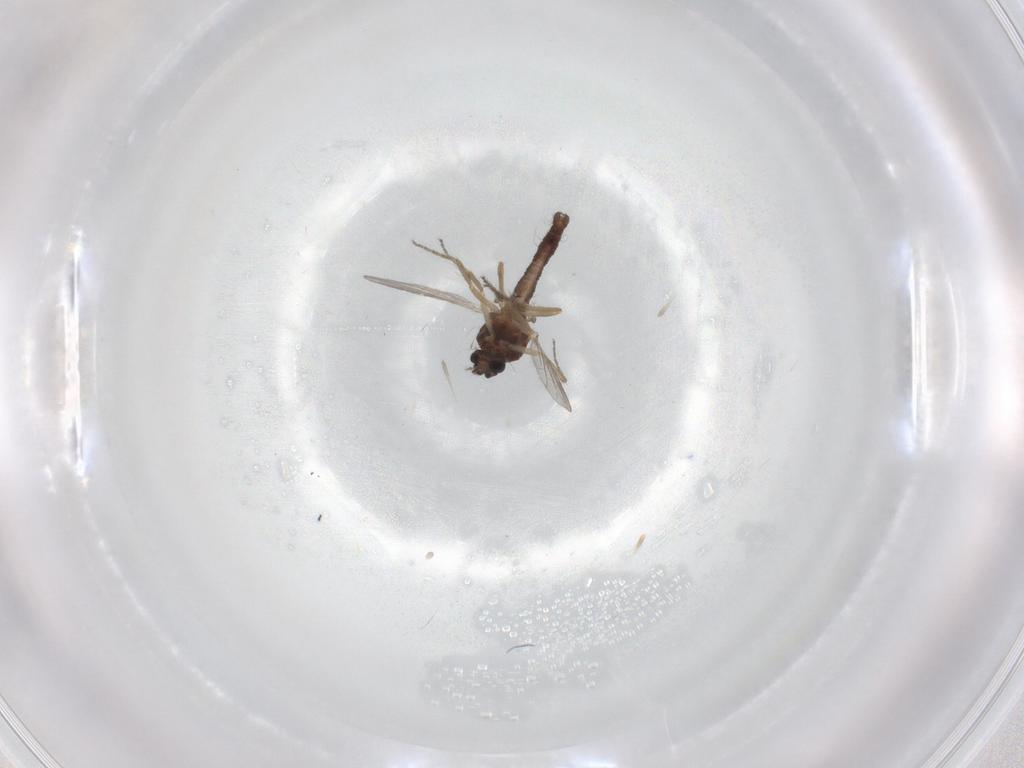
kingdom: Animalia
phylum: Arthropoda
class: Insecta
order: Diptera
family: Ceratopogonidae
